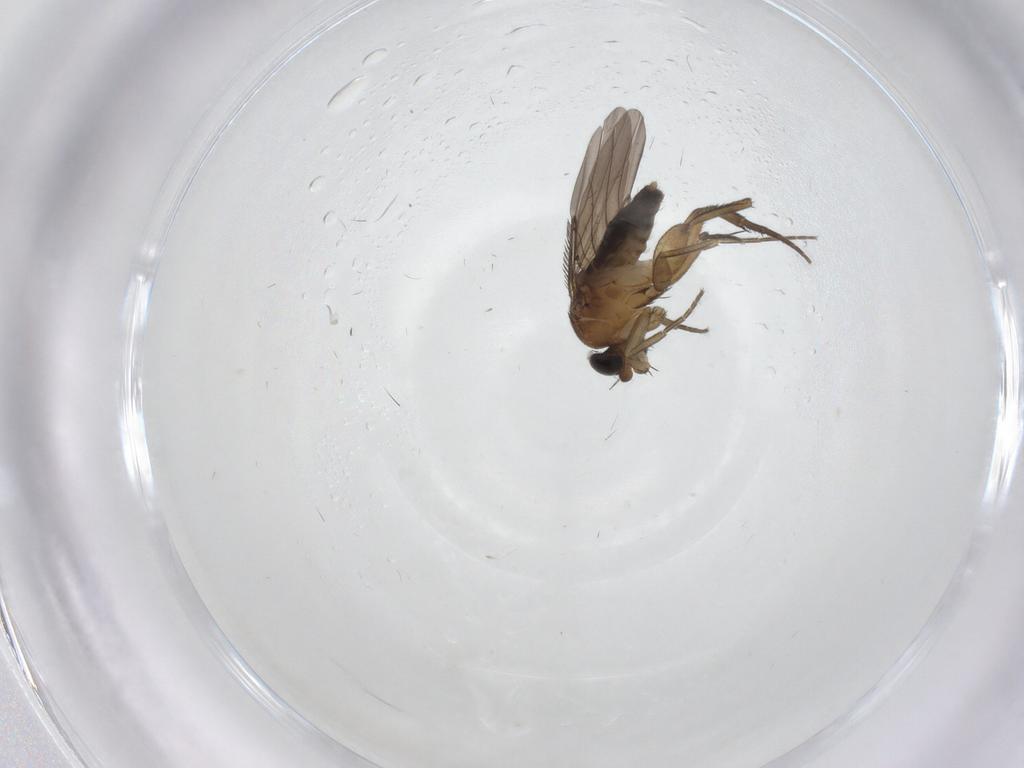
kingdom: Animalia
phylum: Arthropoda
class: Insecta
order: Diptera
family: Phoridae
